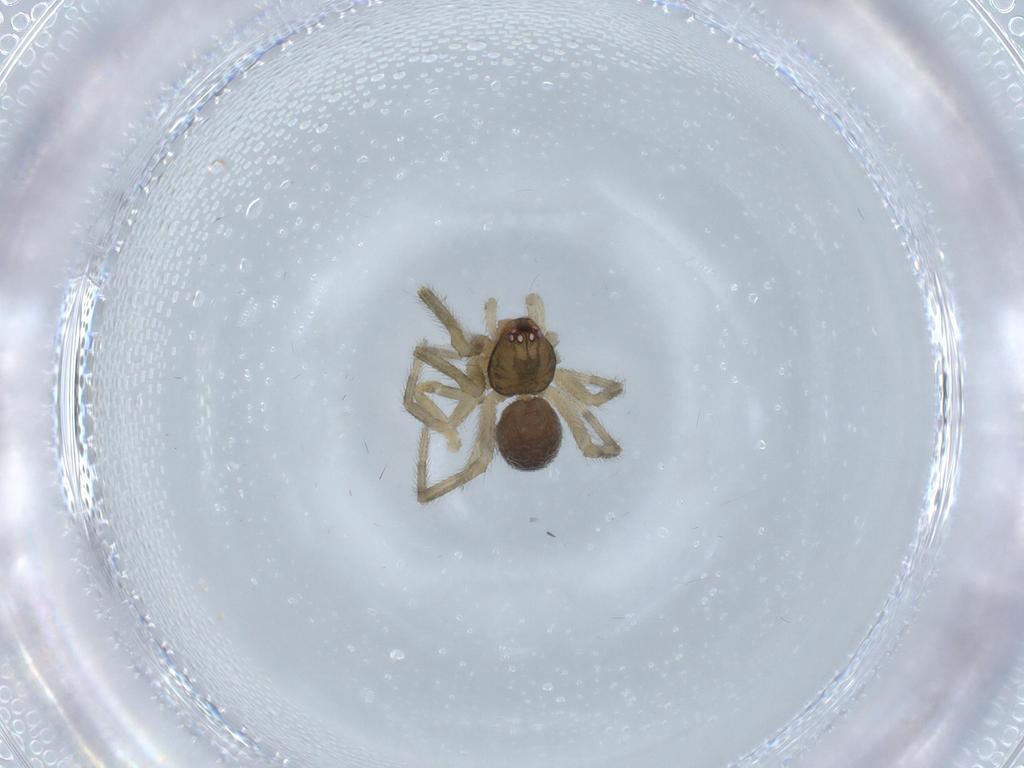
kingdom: Animalia
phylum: Arthropoda
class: Arachnida
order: Araneae
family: Nesticidae
